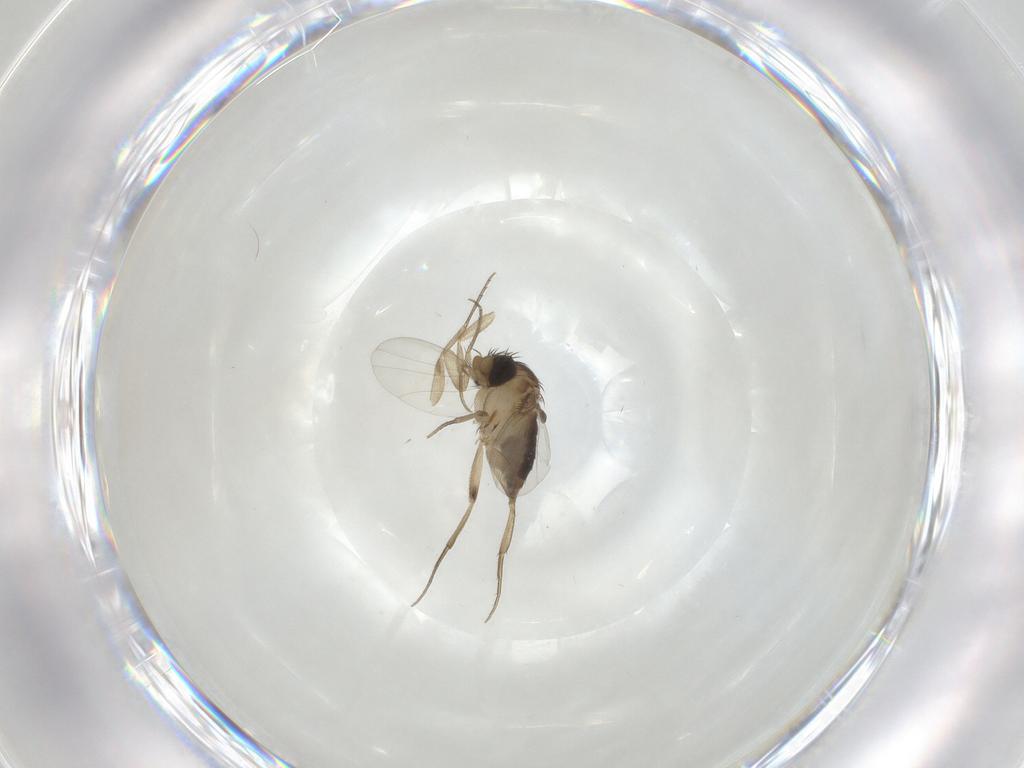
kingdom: Animalia
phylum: Arthropoda
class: Insecta
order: Diptera
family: Phoridae
